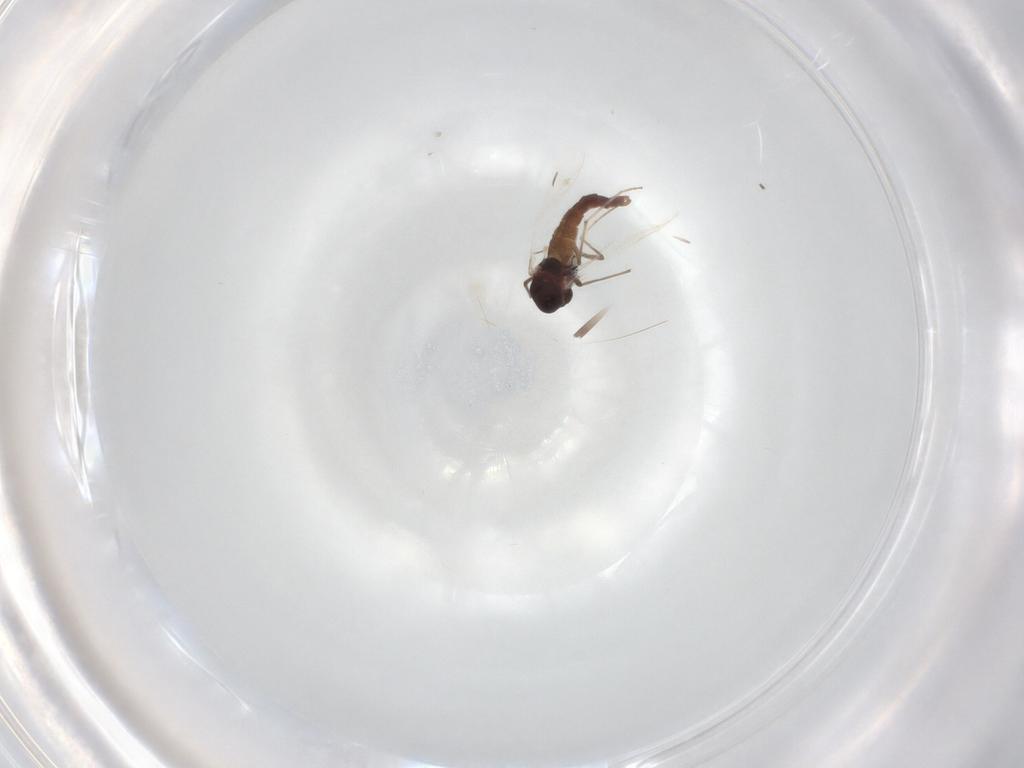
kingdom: Animalia
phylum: Arthropoda
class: Insecta
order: Diptera
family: Chironomidae
